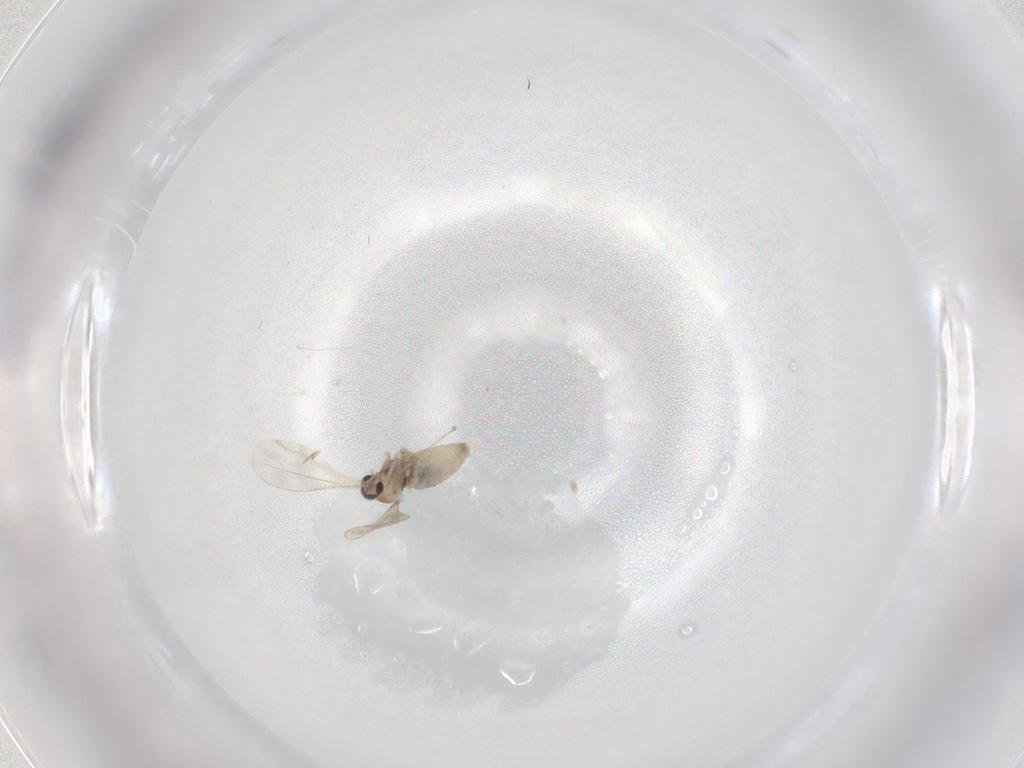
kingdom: Animalia
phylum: Arthropoda
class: Insecta
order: Diptera
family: Cecidomyiidae
